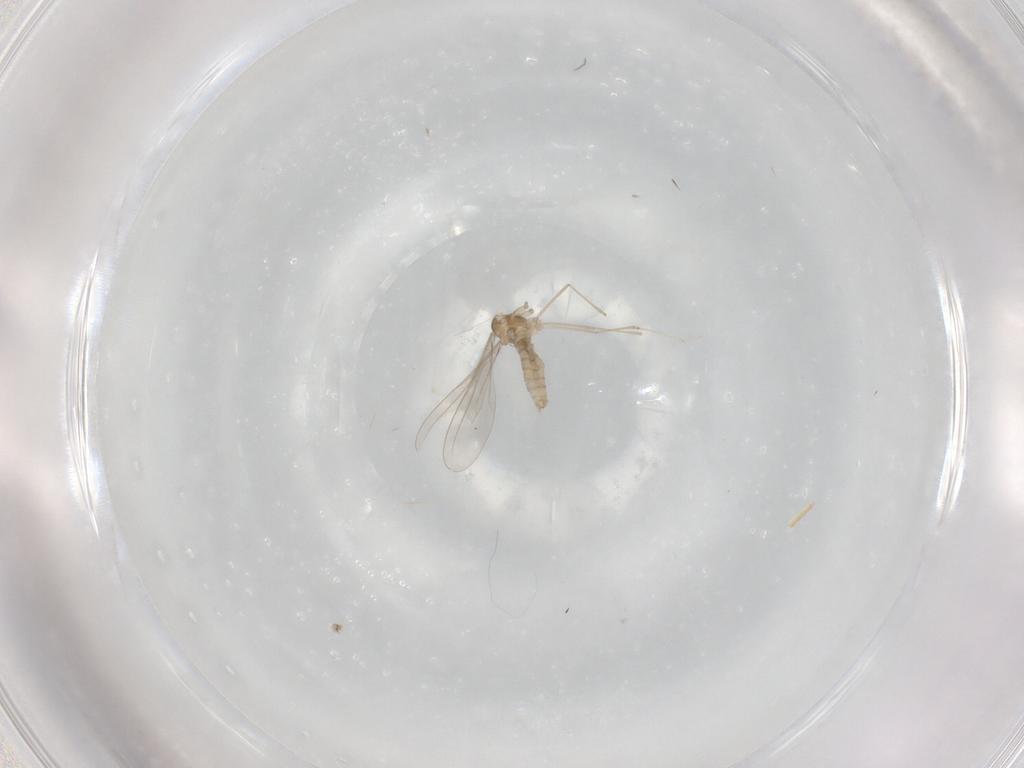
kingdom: Animalia
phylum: Arthropoda
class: Insecta
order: Diptera
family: Cecidomyiidae
